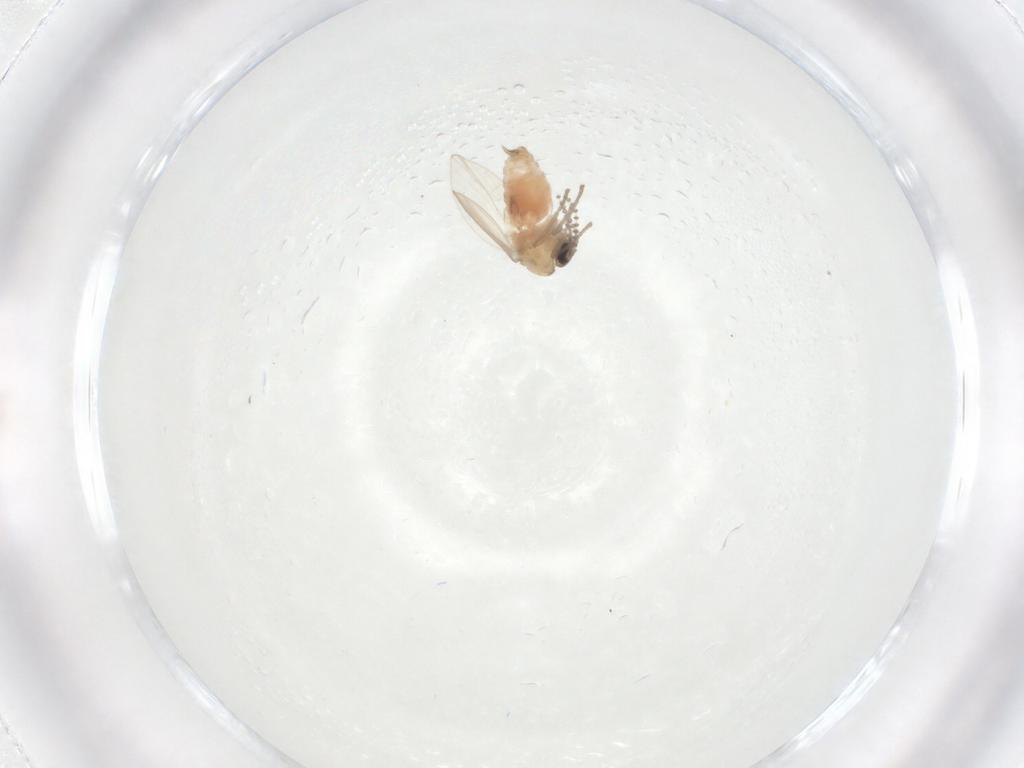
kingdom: Animalia
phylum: Arthropoda
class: Insecta
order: Diptera
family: Psychodidae
